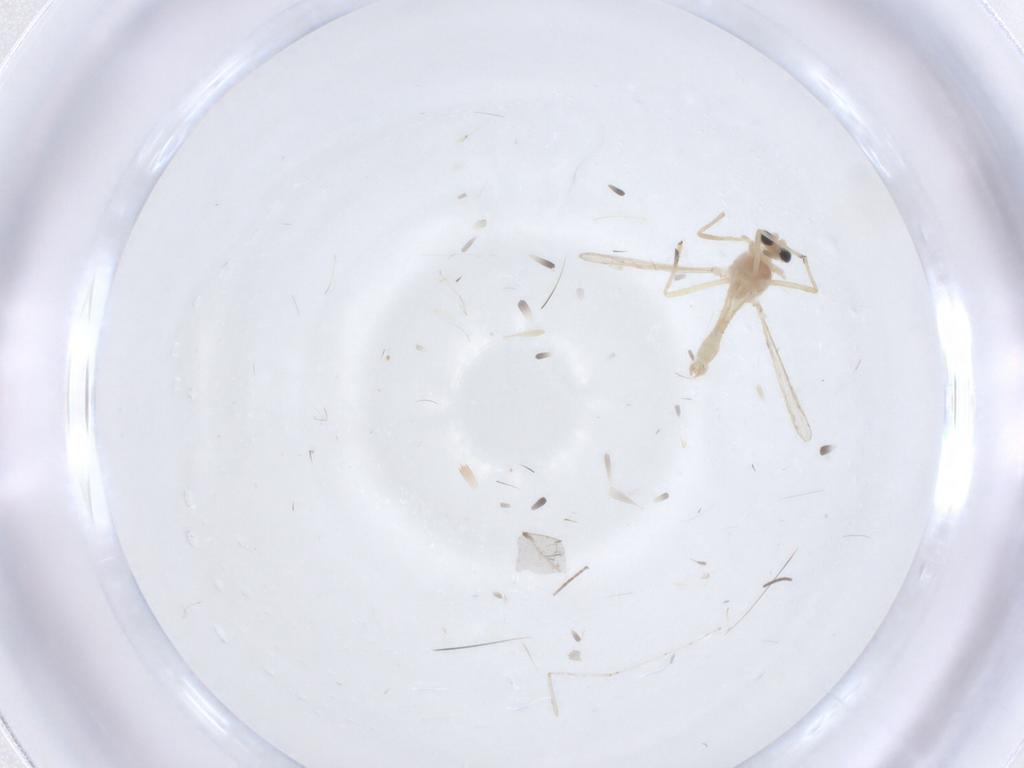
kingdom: Animalia
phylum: Arthropoda
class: Insecta
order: Diptera
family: Chironomidae
